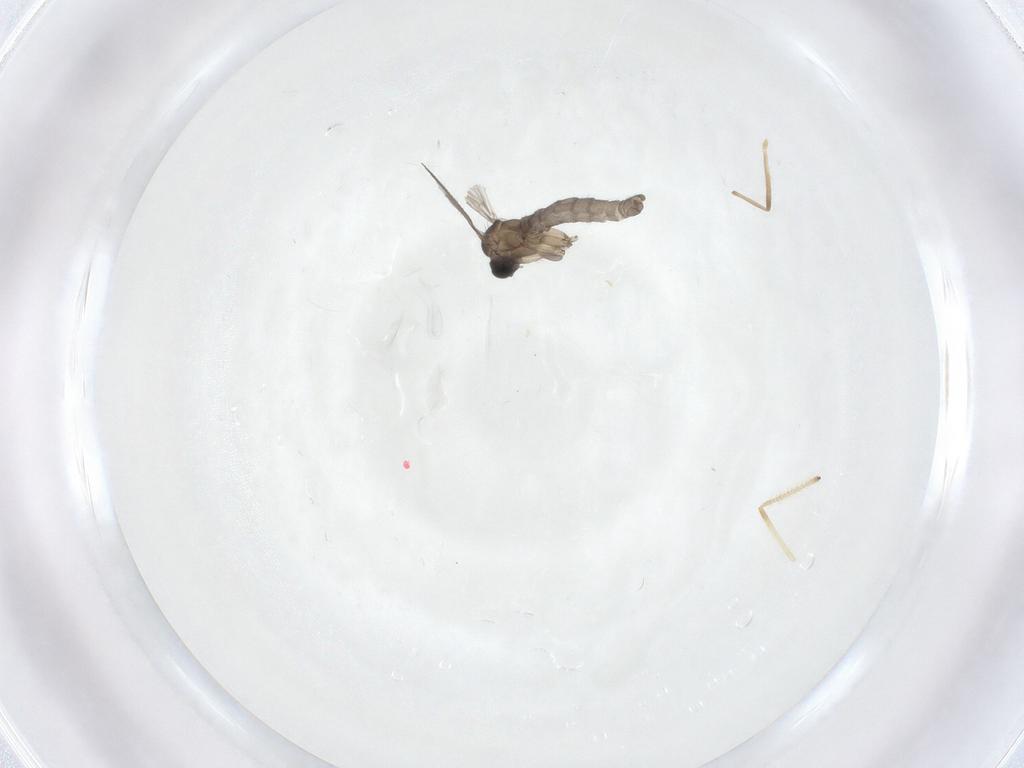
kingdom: Animalia
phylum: Arthropoda
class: Insecta
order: Diptera
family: Sciaridae
